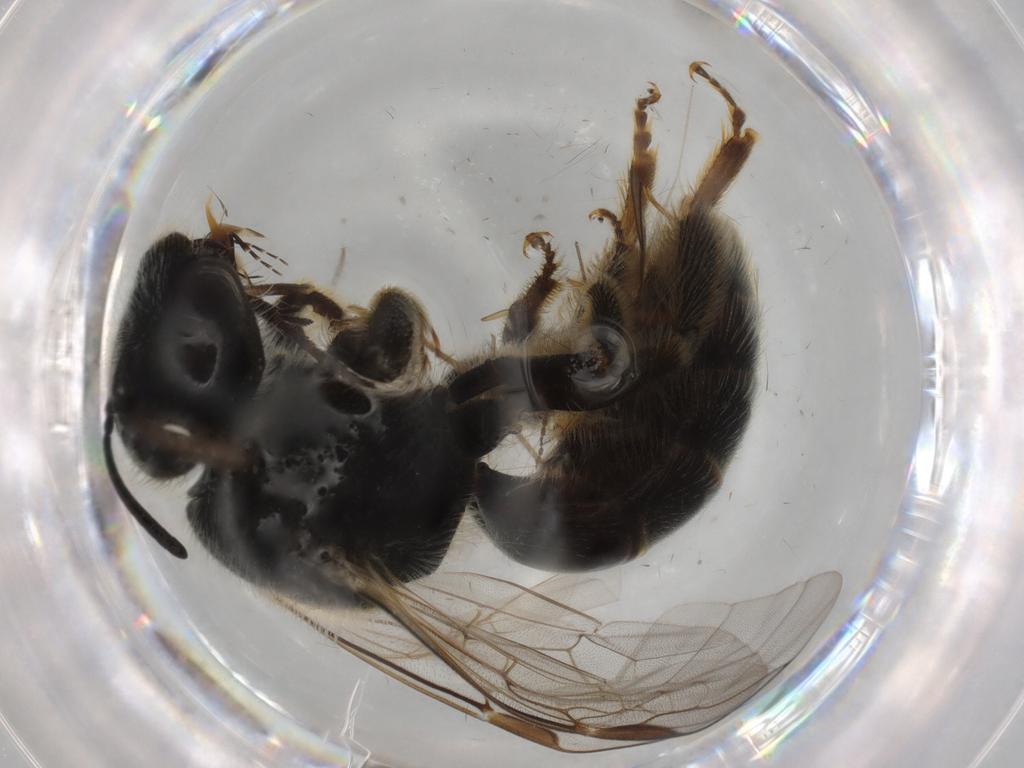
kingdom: Animalia
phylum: Arthropoda
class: Insecta
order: Hymenoptera
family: Halictidae
